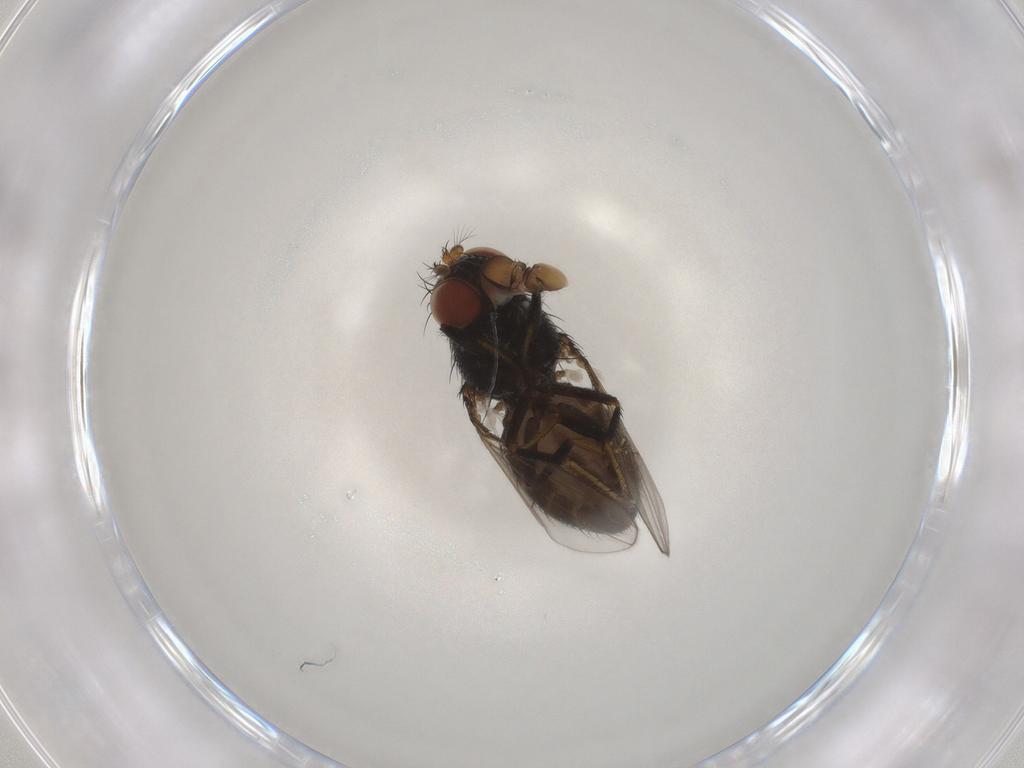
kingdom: Animalia
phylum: Arthropoda
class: Insecta
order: Diptera
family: Ephydridae
